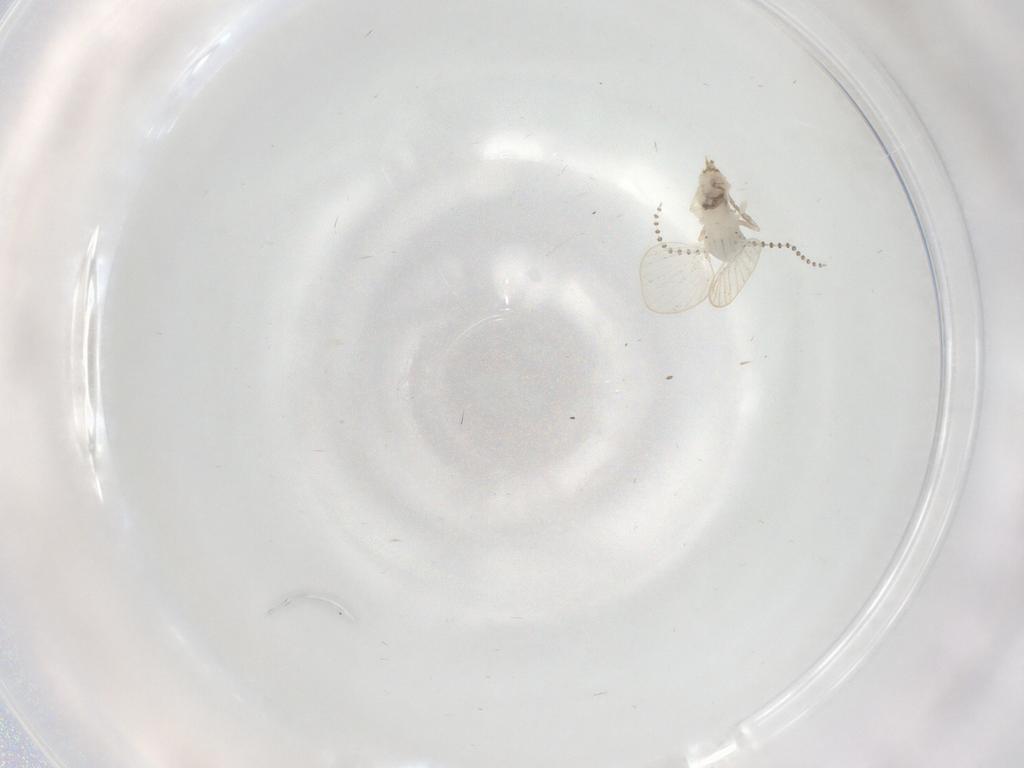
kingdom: Animalia
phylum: Arthropoda
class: Insecta
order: Diptera
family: Psychodidae
